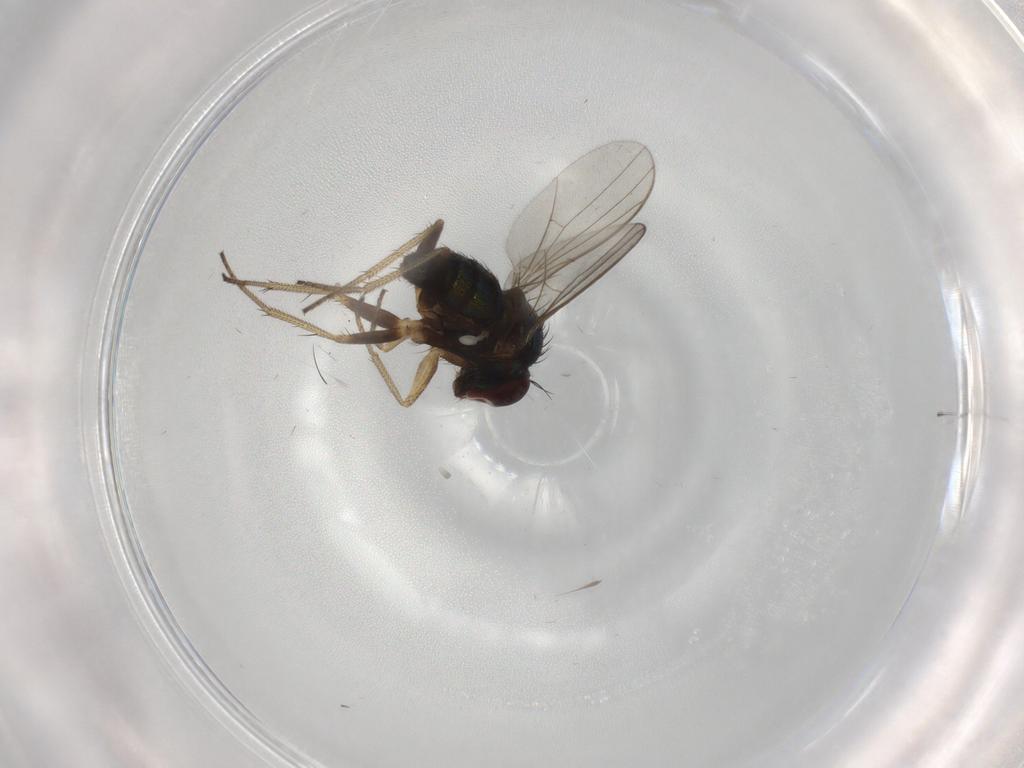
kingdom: Animalia
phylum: Arthropoda
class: Insecta
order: Diptera
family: Dolichopodidae
